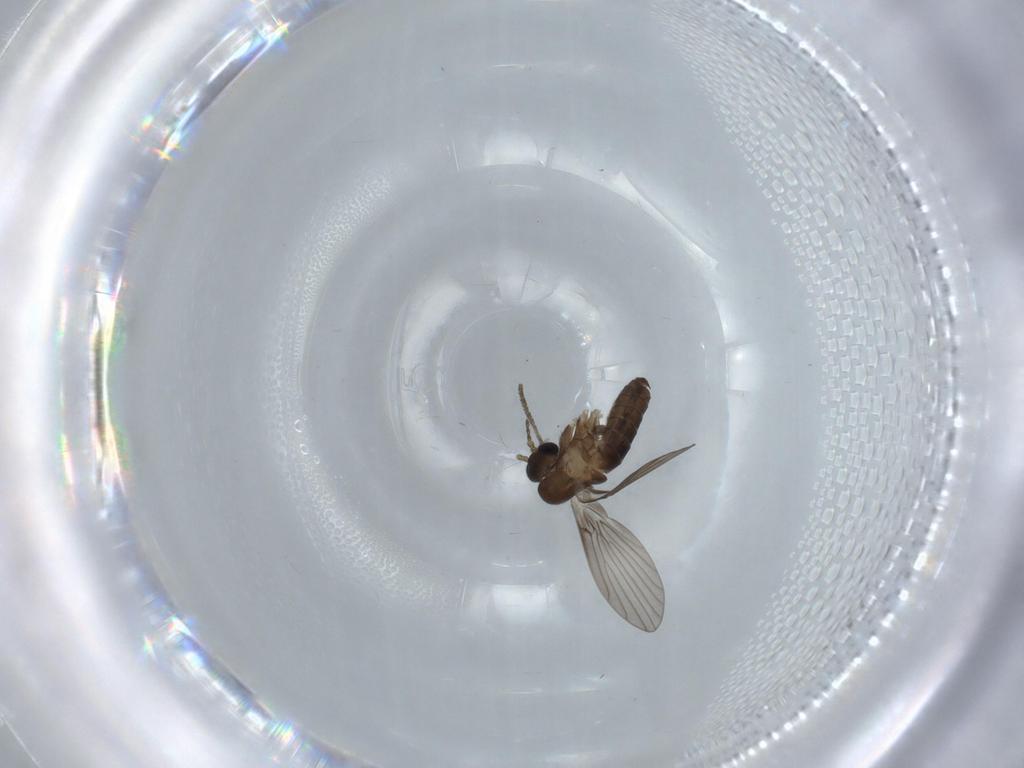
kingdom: Animalia
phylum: Arthropoda
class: Insecta
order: Diptera
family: Psychodidae
